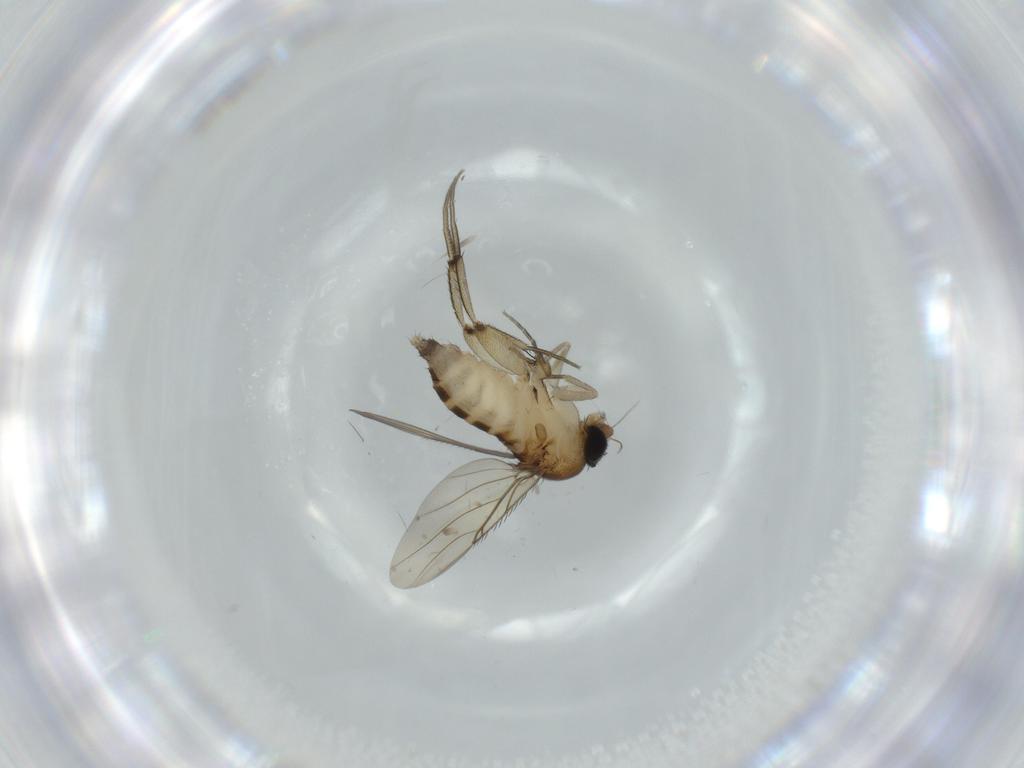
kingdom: Animalia
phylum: Arthropoda
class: Insecta
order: Diptera
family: Phoridae
